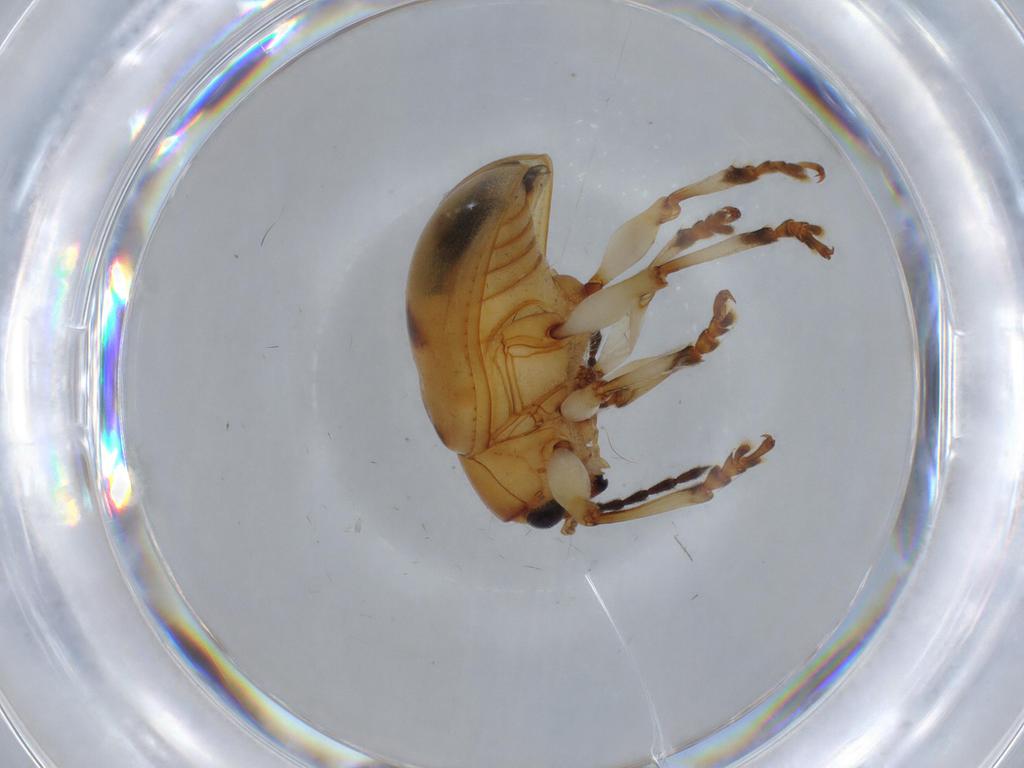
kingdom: Animalia
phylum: Arthropoda
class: Insecta
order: Coleoptera
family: Chrysomelidae
